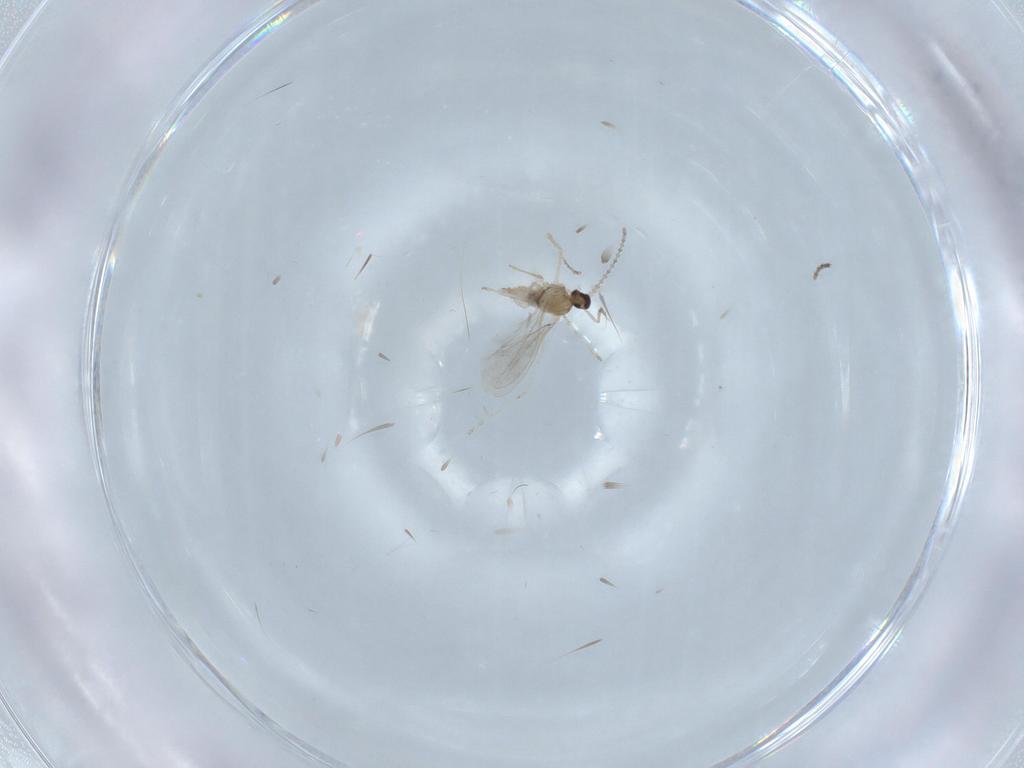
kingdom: Animalia
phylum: Arthropoda
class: Insecta
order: Diptera
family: Ceratopogonidae
